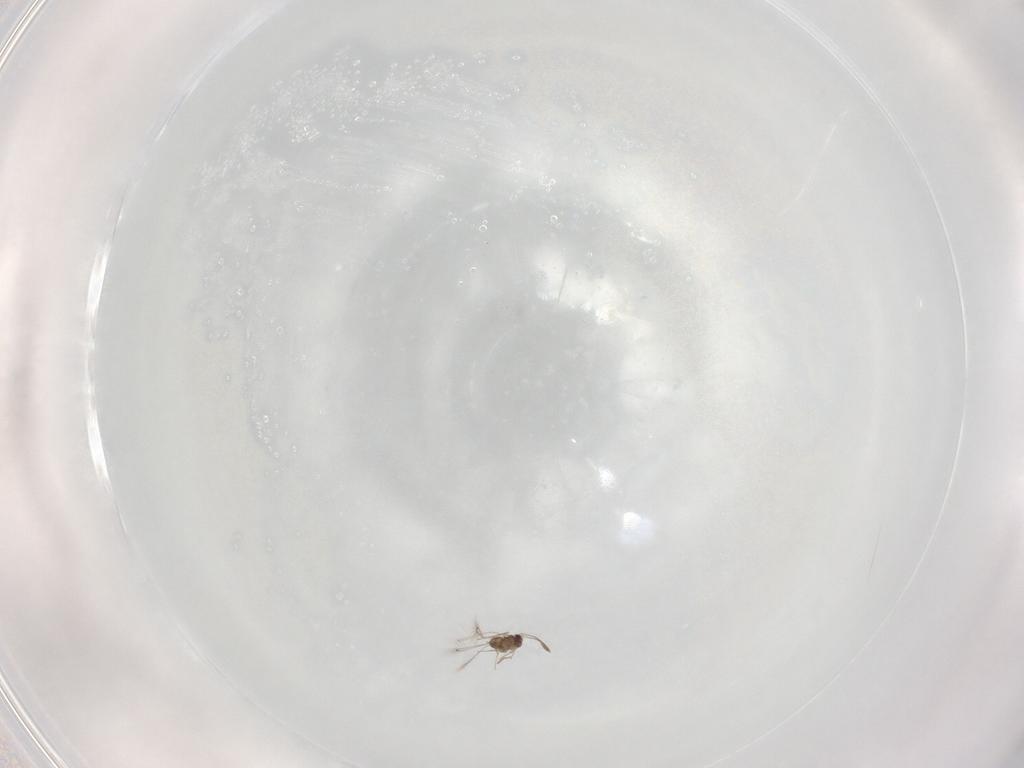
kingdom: Animalia
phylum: Arthropoda
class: Insecta
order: Hymenoptera
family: Mymaridae
